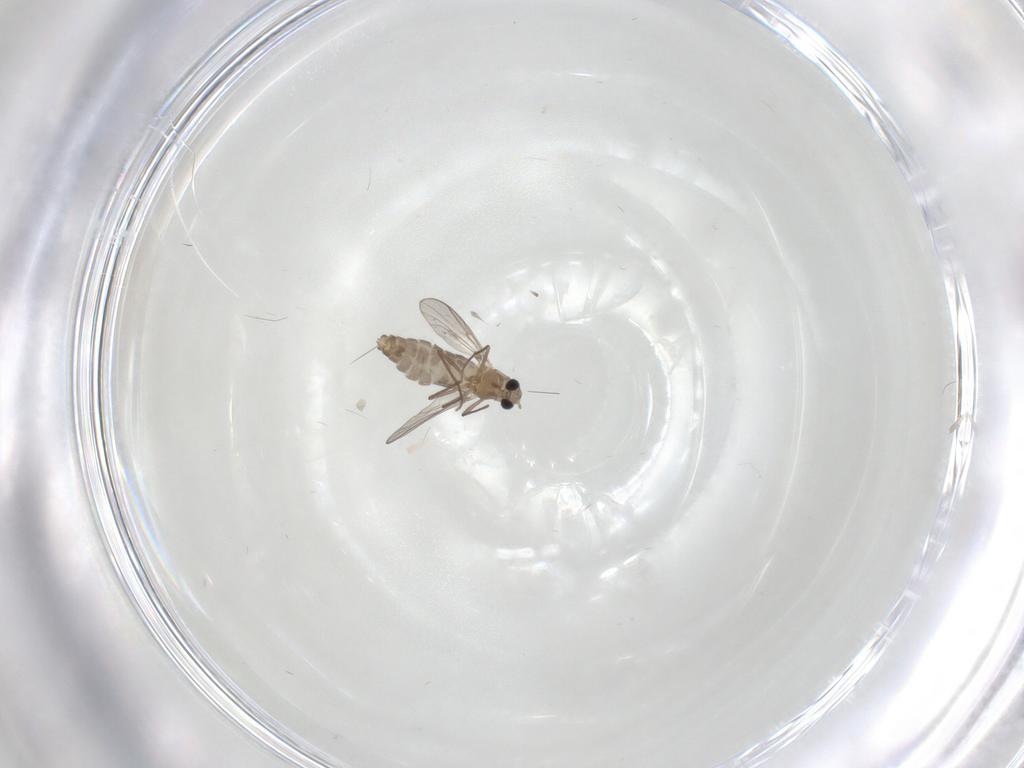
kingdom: Animalia
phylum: Arthropoda
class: Insecta
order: Diptera
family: Chironomidae
